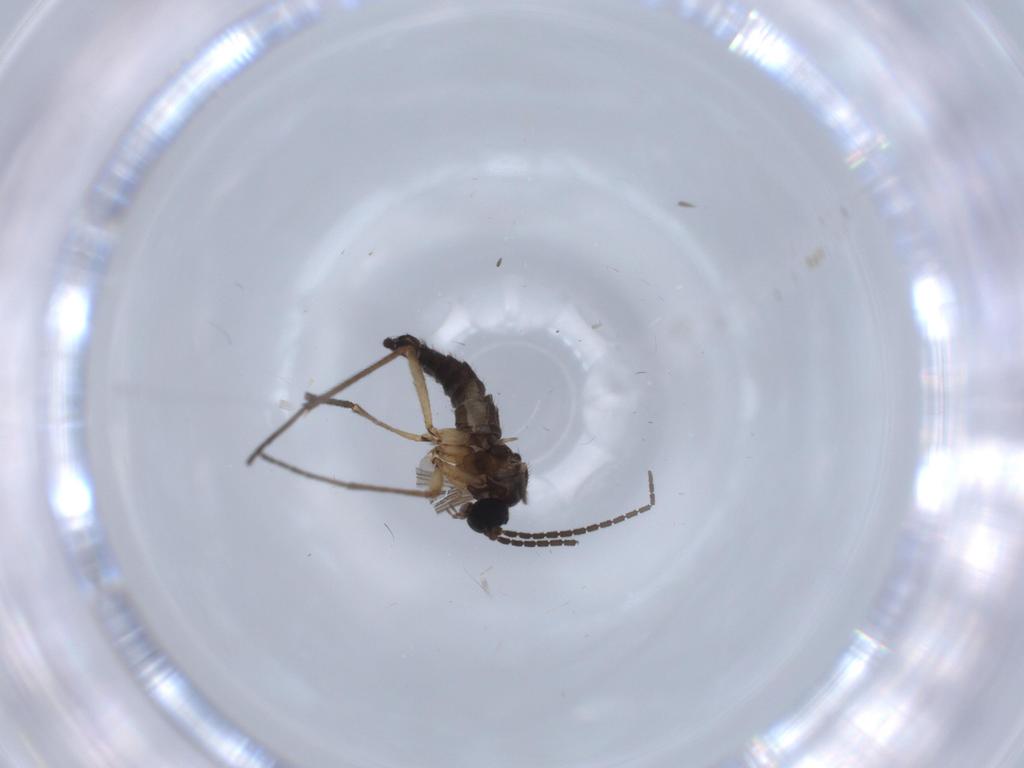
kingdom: Animalia
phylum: Arthropoda
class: Insecta
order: Diptera
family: Sciaridae
